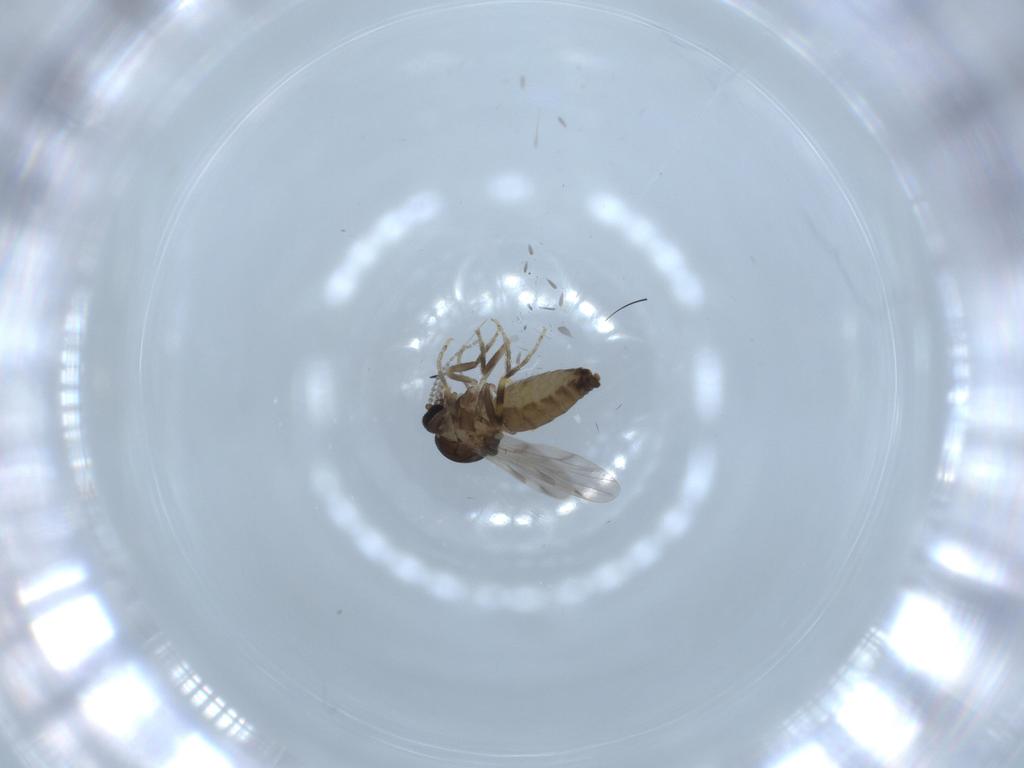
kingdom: Animalia
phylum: Arthropoda
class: Insecta
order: Diptera
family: Ceratopogonidae
